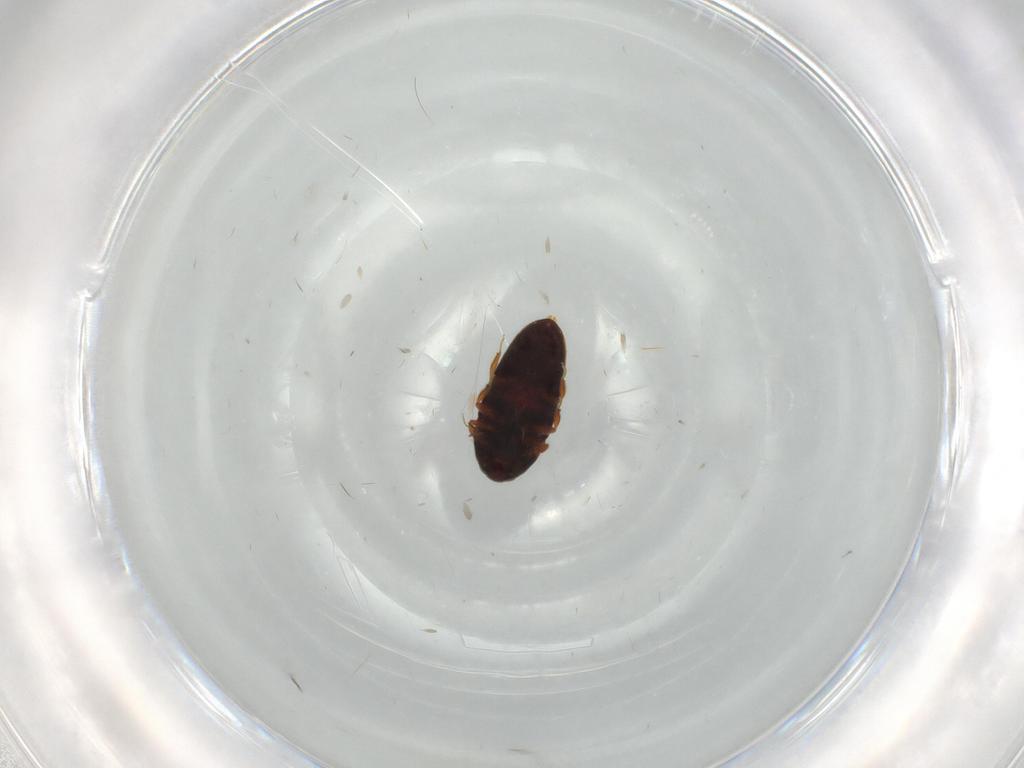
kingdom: Animalia
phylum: Arthropoda
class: Insecta
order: Coleoptera
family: Throscidae
